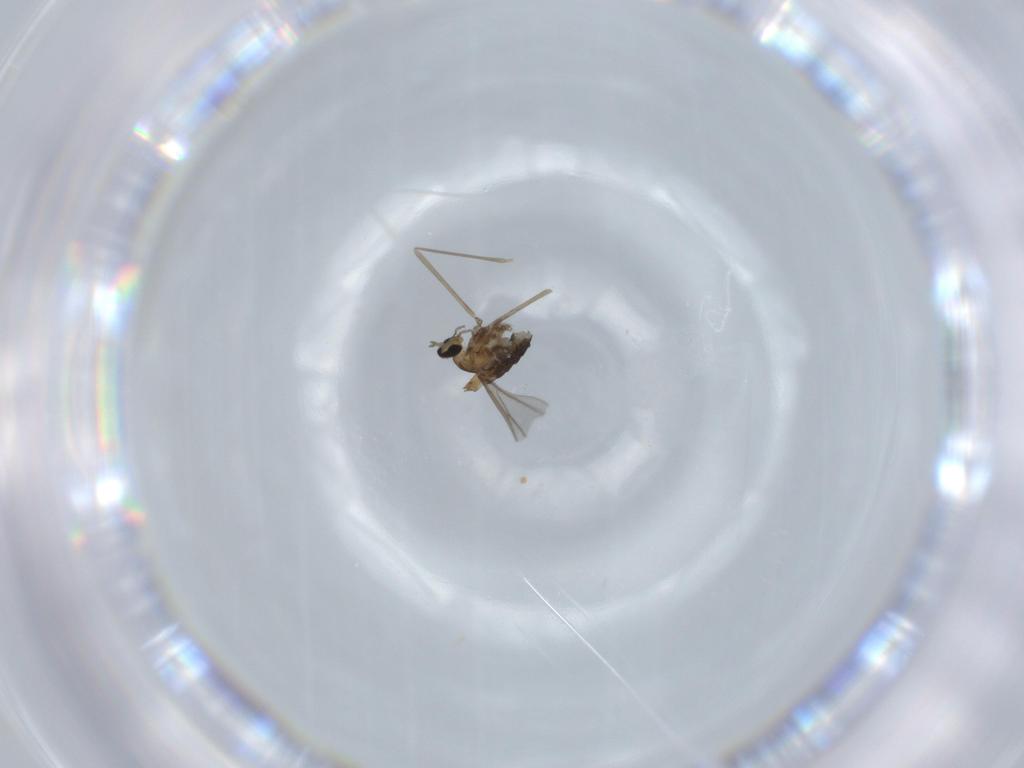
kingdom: Animalia
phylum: Arthropoda
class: Insecta
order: Diptera
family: Cecidomyiidae
